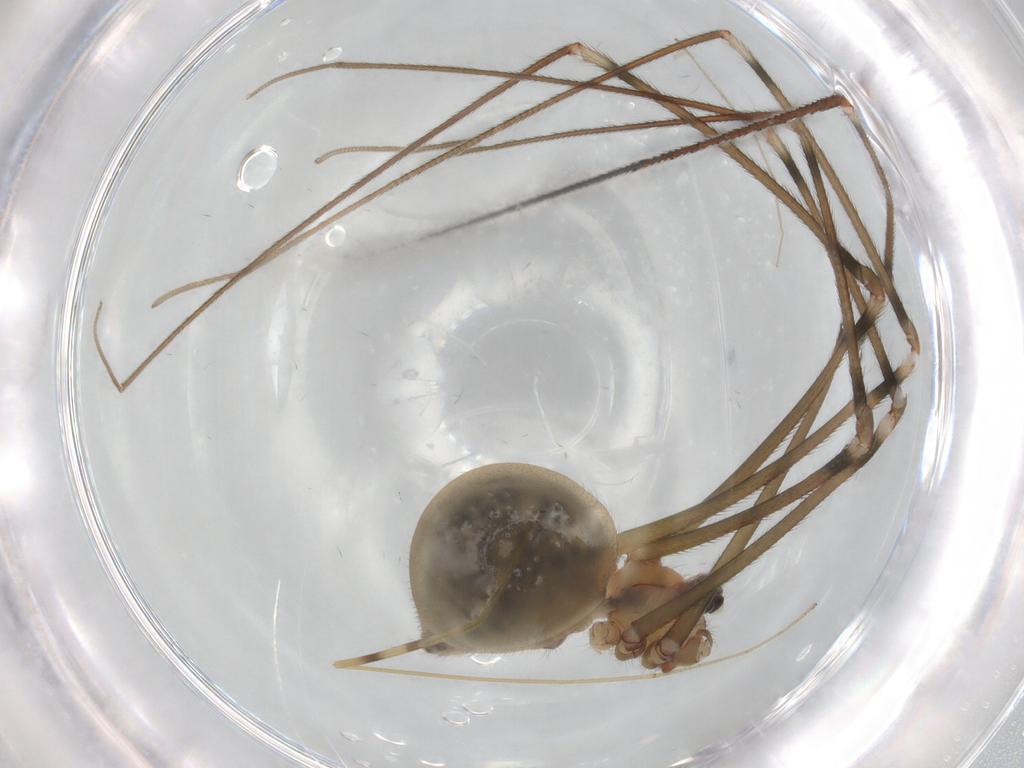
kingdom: Animalia
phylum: Arthropoda
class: Arachnida
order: Araneae
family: Pholcidae
